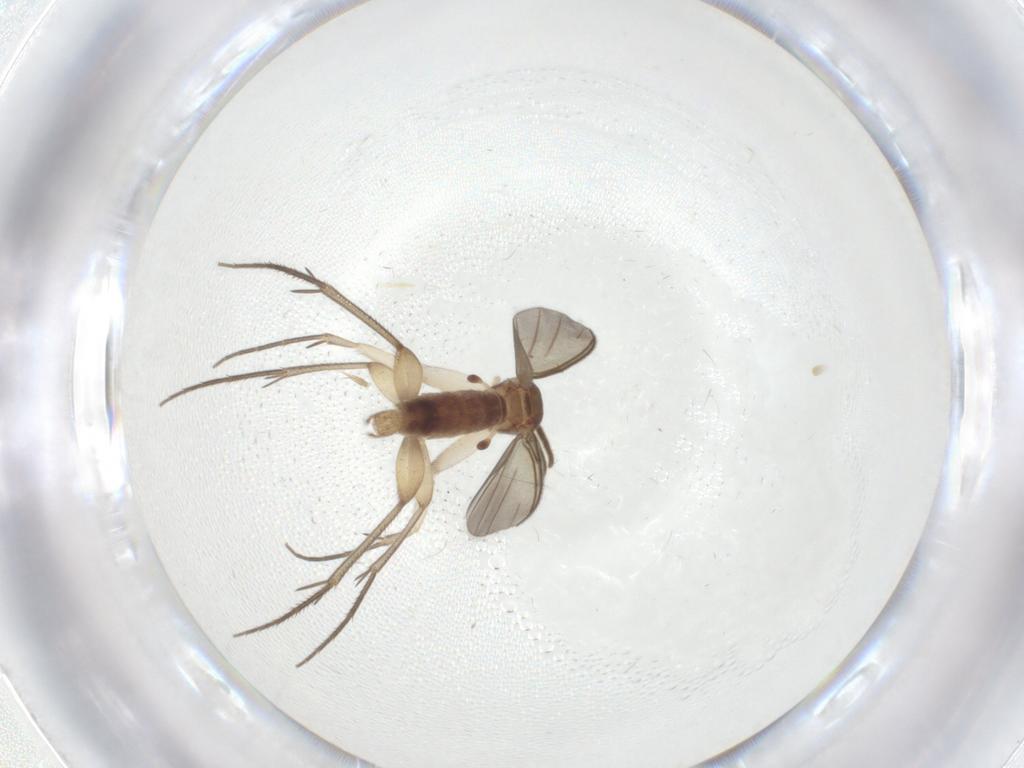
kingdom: Animalia
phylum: Arthropoda
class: Insecta
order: Diptera
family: Mycetophilidae
